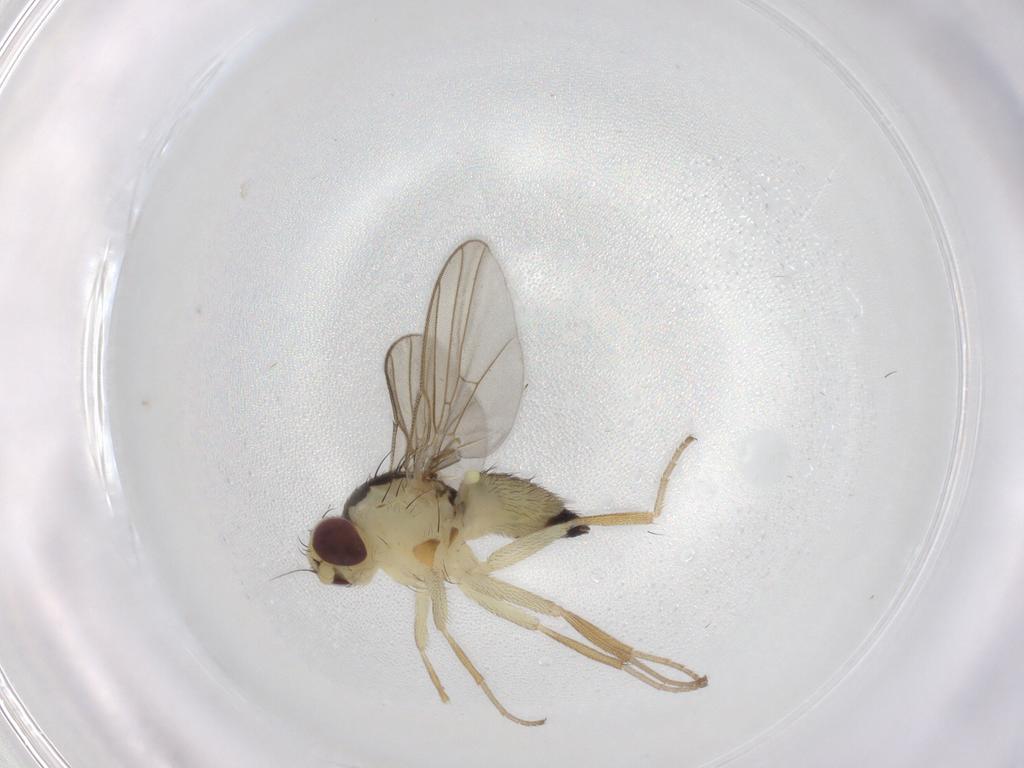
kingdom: Animalia
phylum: Arthropoda
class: Insecta
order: Diptera
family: Agromyzidae
